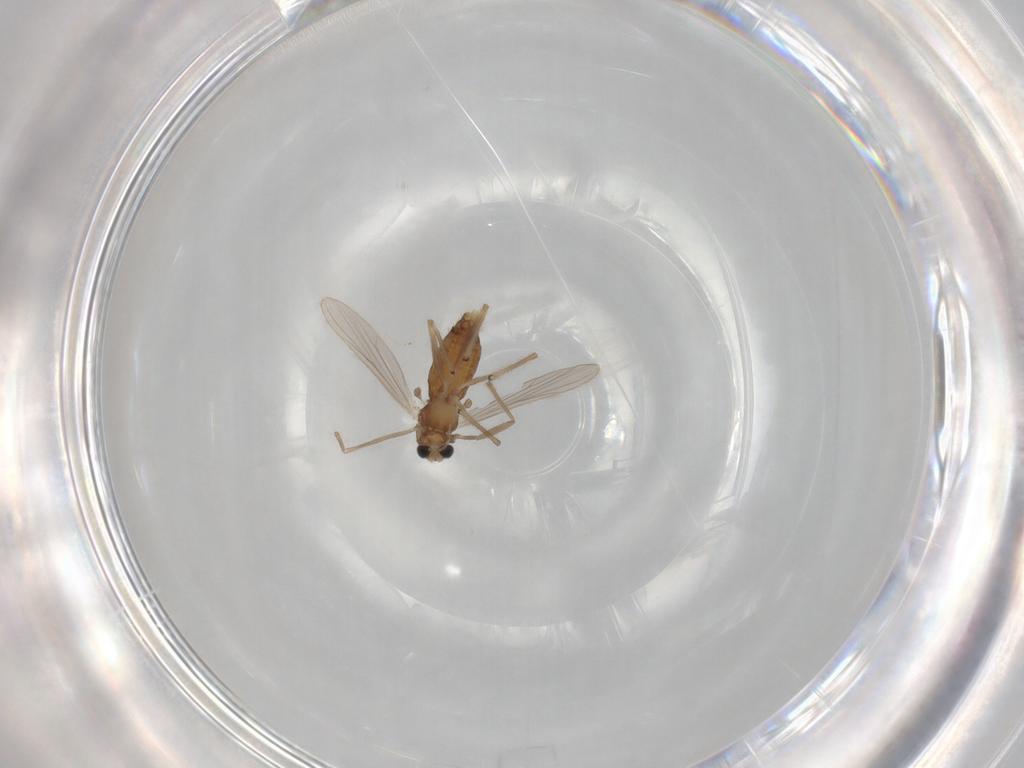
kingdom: Animalia
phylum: Arthropoda
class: Insecta
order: Diptera
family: Chironomidae
